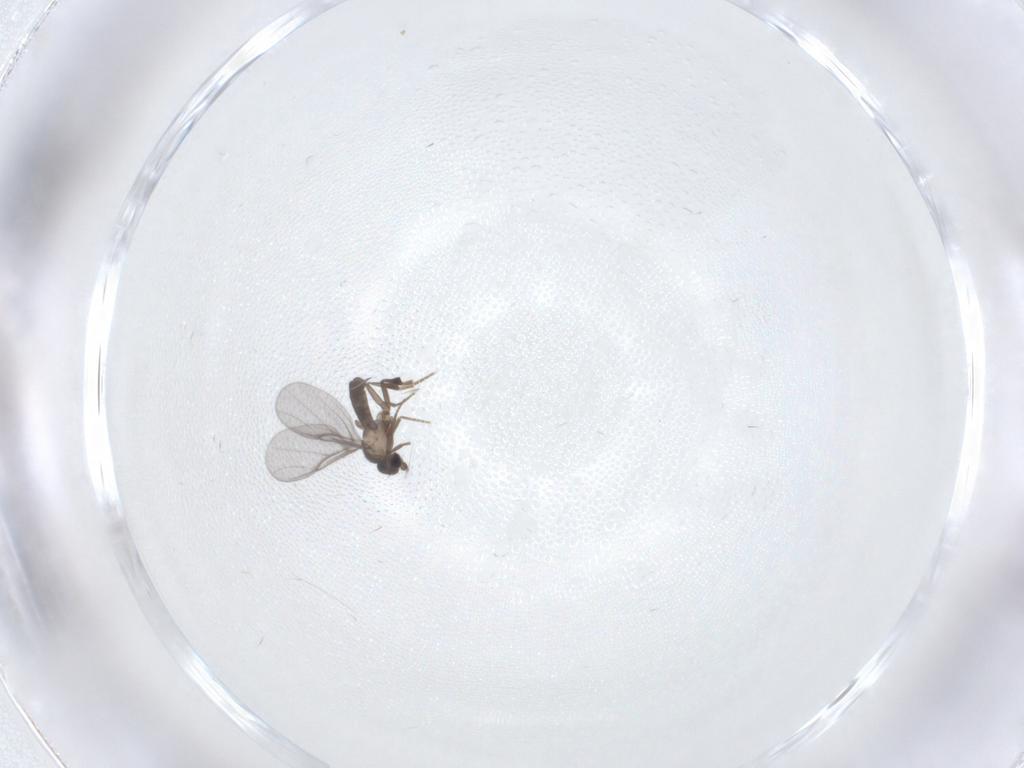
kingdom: Animalia
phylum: Arthropoda
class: Insecta
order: Diptera
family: Phoridae
